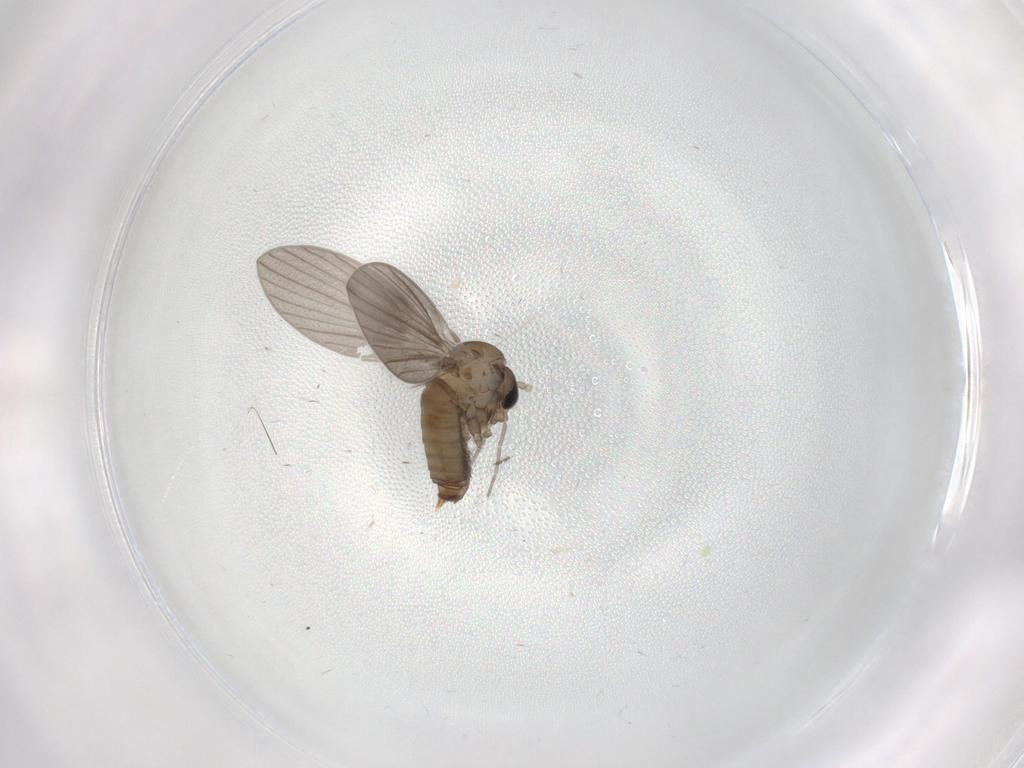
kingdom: Animalia
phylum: Arthropoda
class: Insecta
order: Diptera
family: Psychodidae
